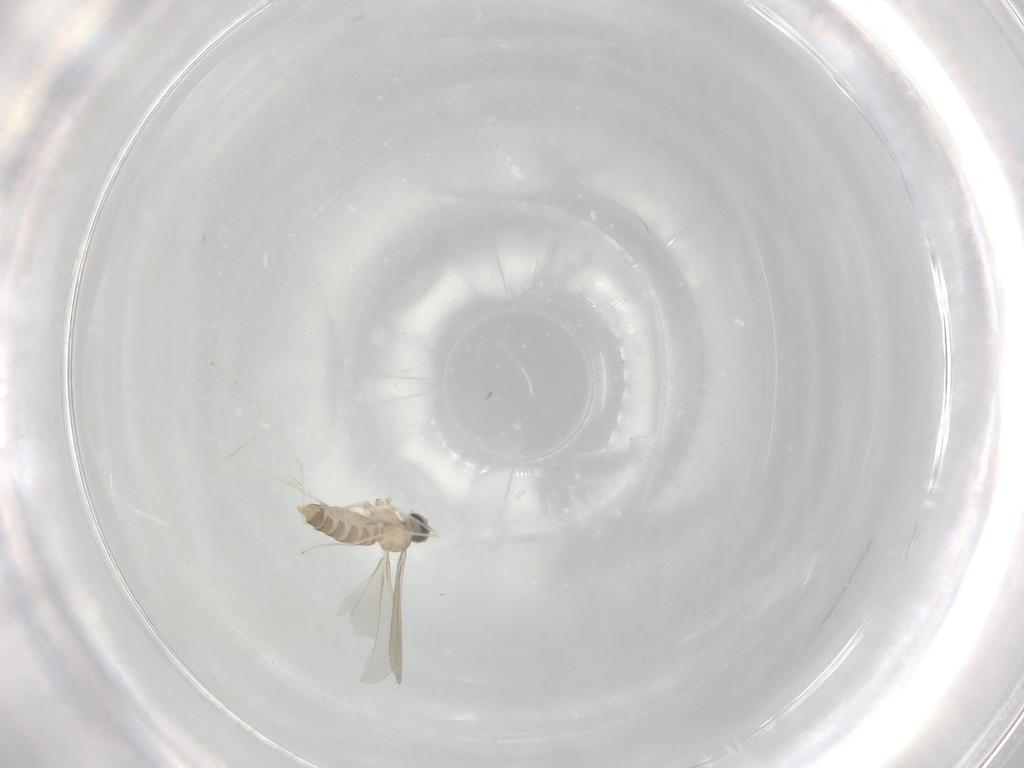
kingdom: Animalia
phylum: Arthropoda
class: Insecta
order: Diptera
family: Cecidomyiidae
